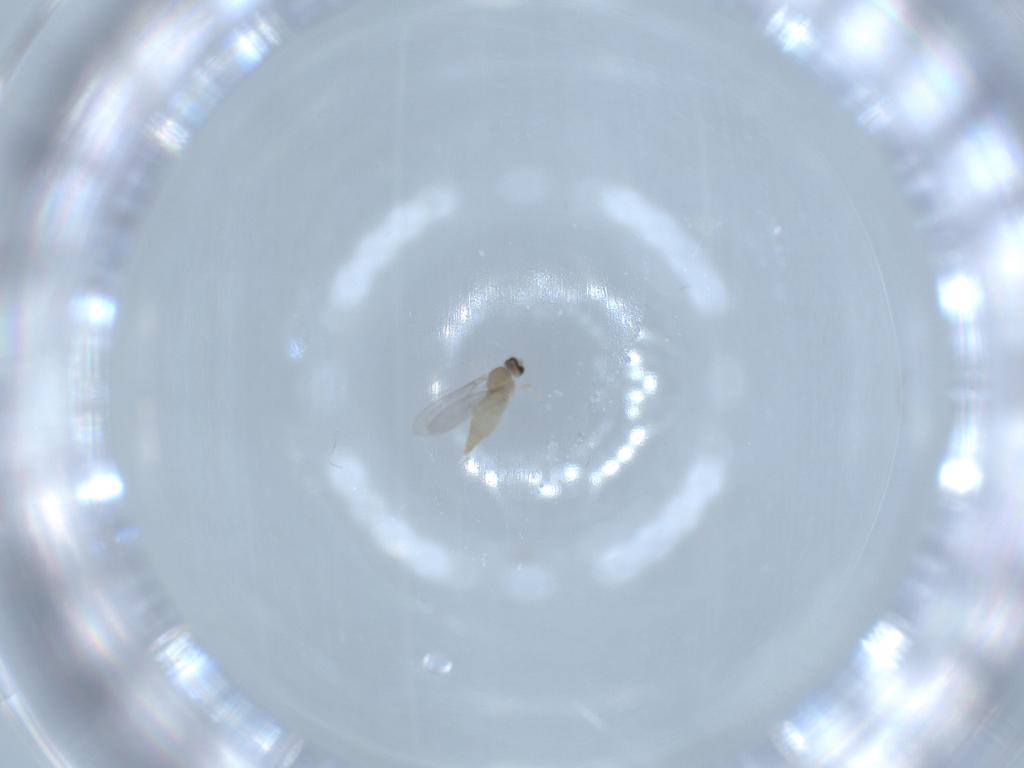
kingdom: Animalia
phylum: Arthropoda
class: Insecta
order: Diptera
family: Cecidomyiidae
